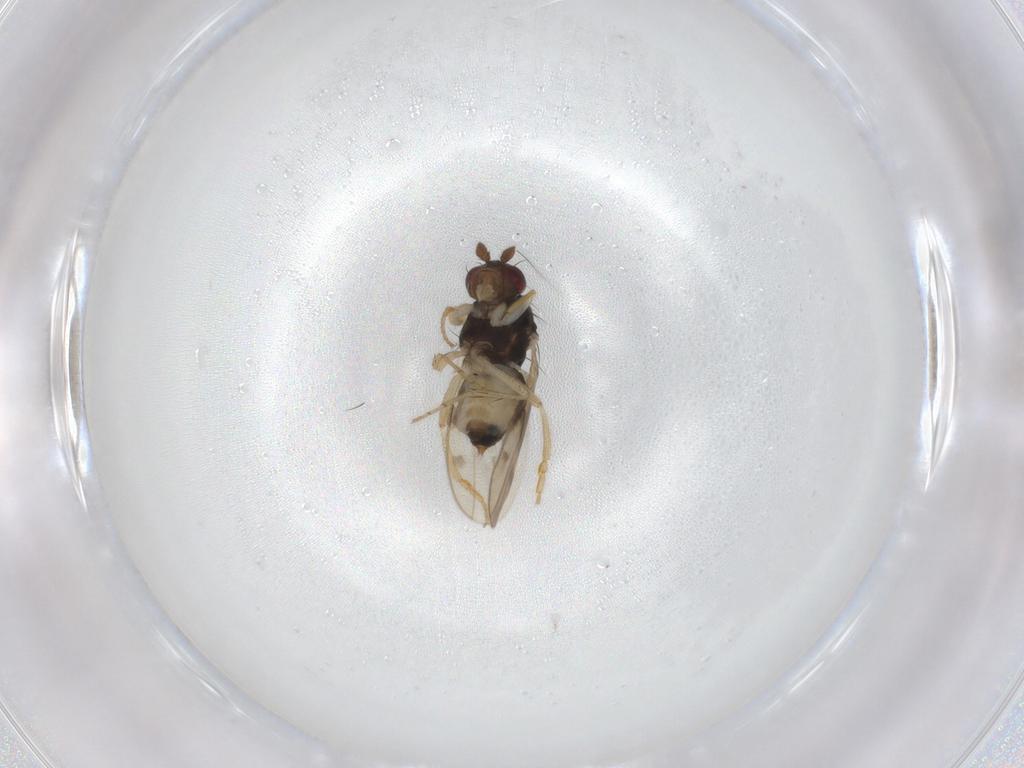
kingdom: Animalia
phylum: Arthropoda
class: Insecta
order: Diptera
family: Sphaeroceridae
